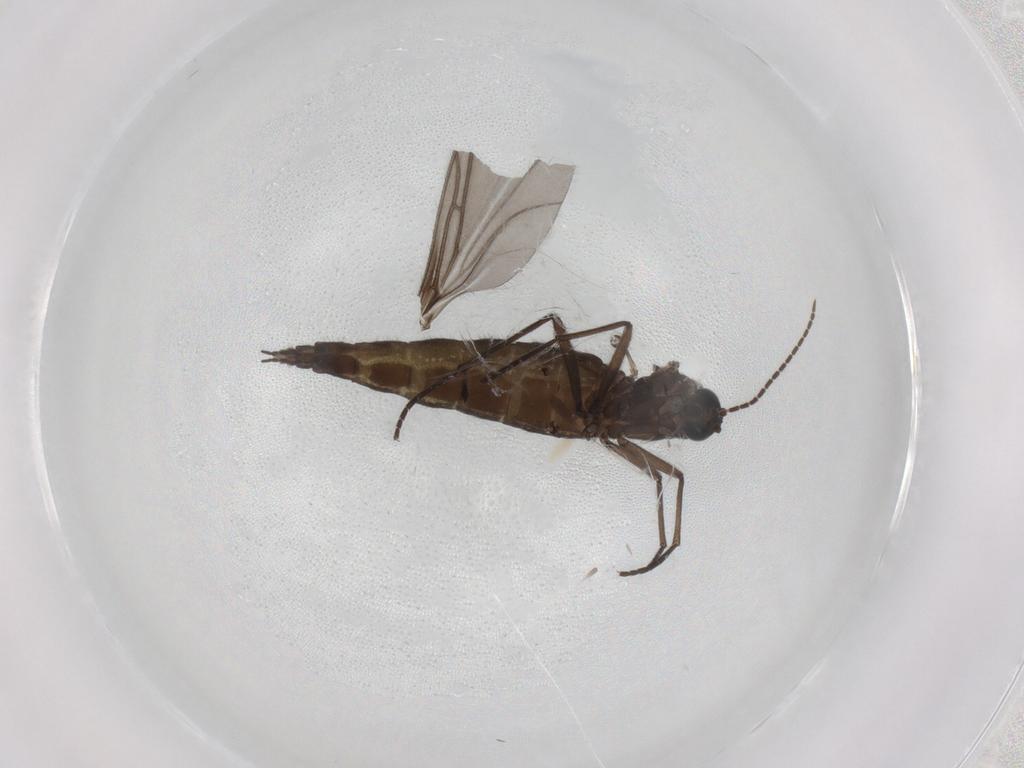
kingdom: Animalia
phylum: Arthropoda
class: Insecta
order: Diptera
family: Dolichopodidae
